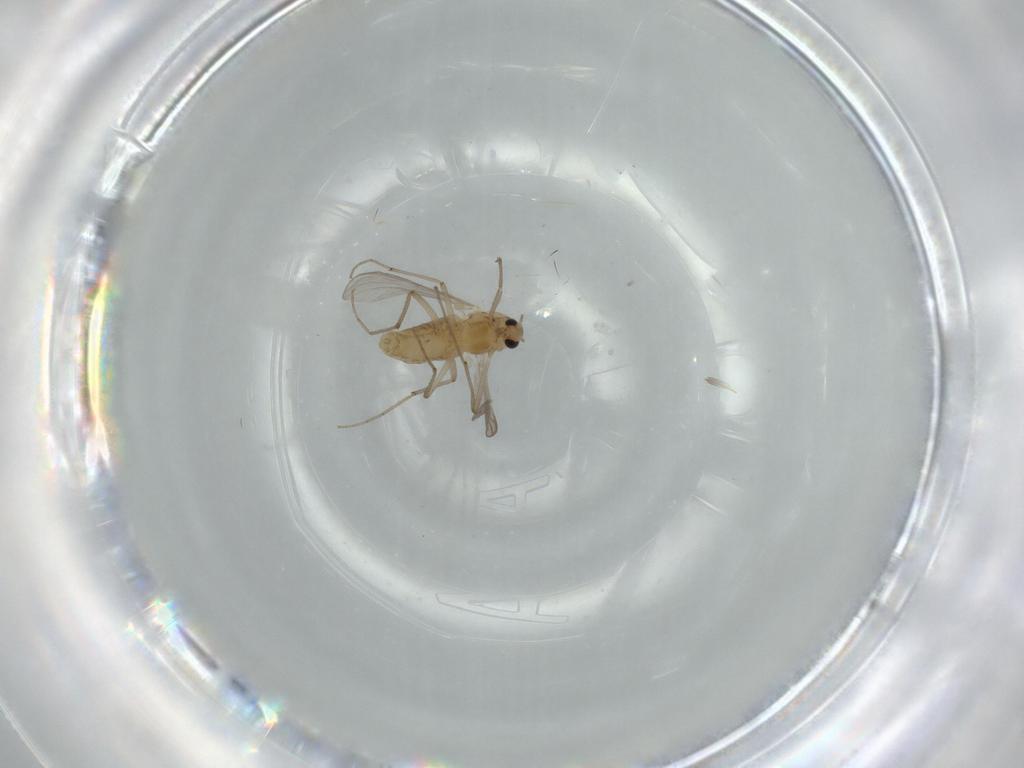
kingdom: Animalia
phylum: Arthropoda
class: Insecta
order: Diptera
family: Chironomidae
